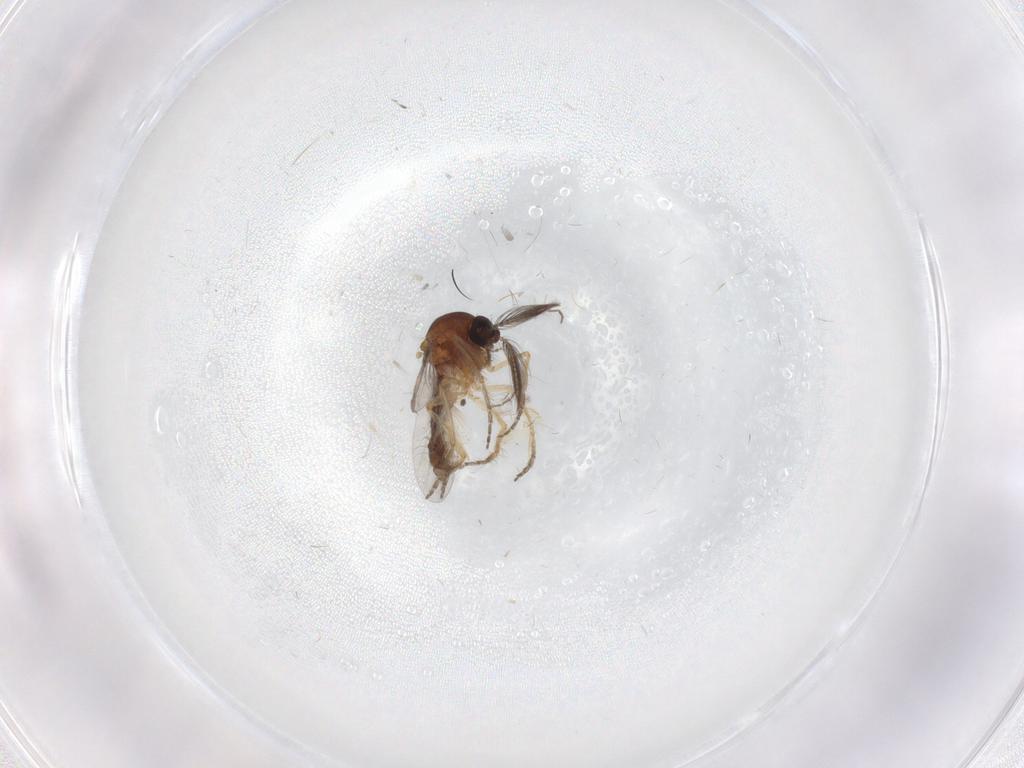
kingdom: Animalia
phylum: Arthropoda
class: Insecta
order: Diptera
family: Ceratopogonidae
